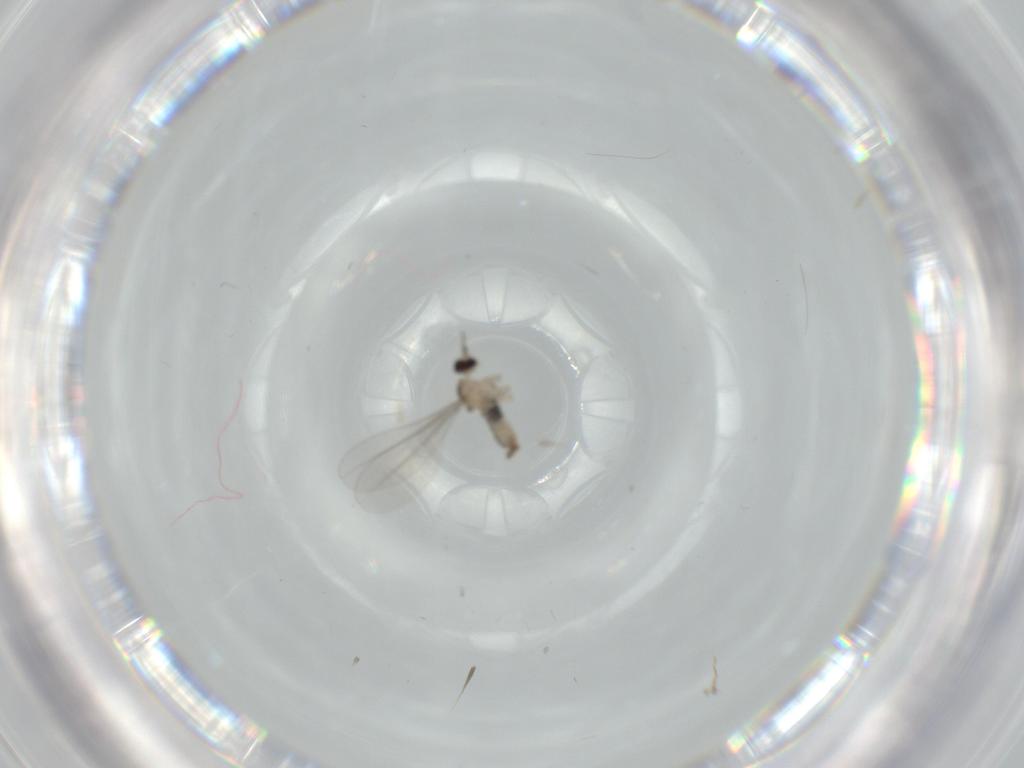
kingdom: Animalia
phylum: Arthropoda
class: Insecta
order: Diptera
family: Cecidomyiidae
